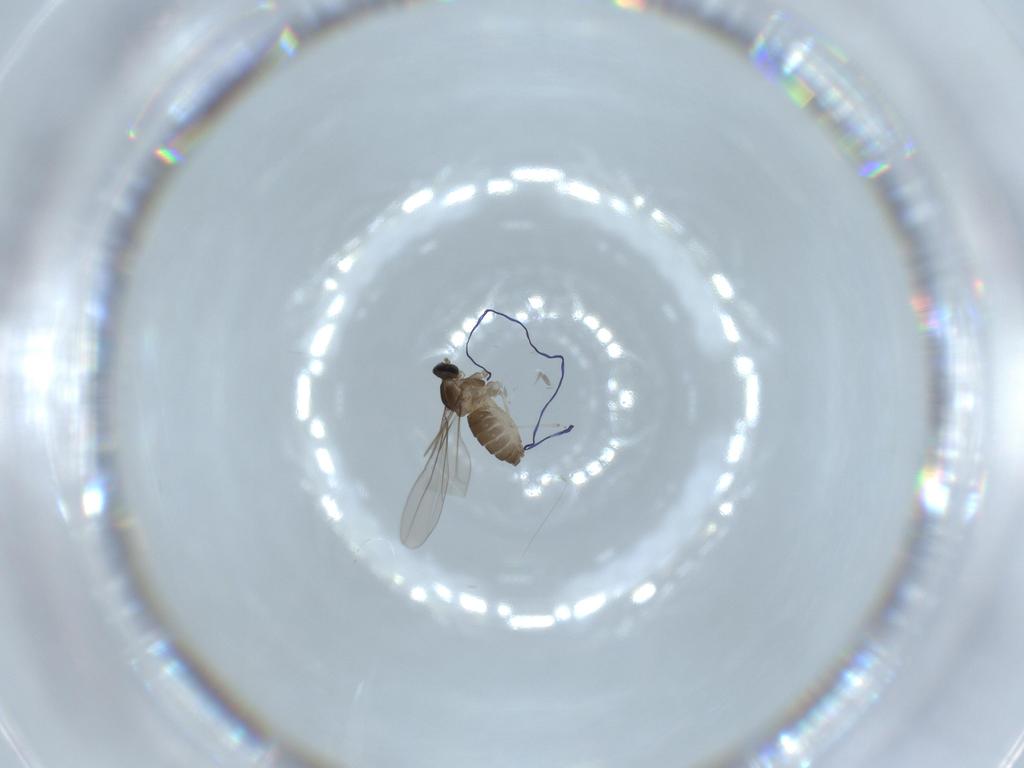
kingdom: Animalia
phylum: Arthropoda
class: Insecta
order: Diptera
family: Cecidomyiidae
